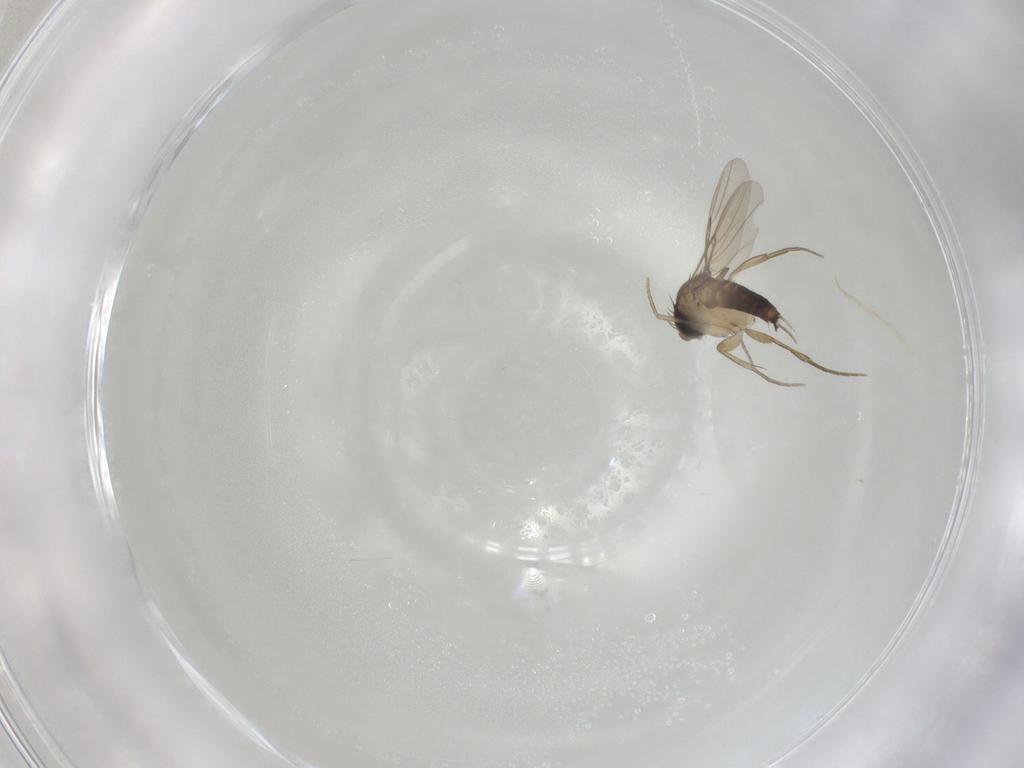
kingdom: Animalia
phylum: Arthropoda
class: Insecta
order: Diptera
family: Phoridae
